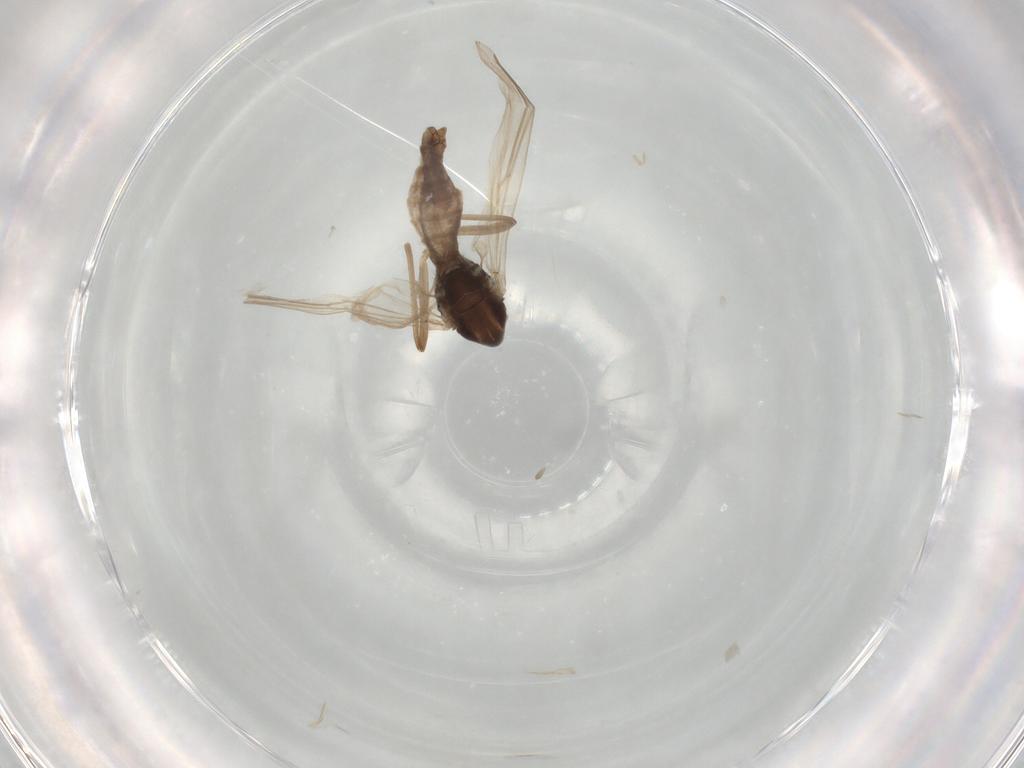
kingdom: Animalia
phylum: Arthropoda
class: Insecta
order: Diptera
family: Chironomidae
